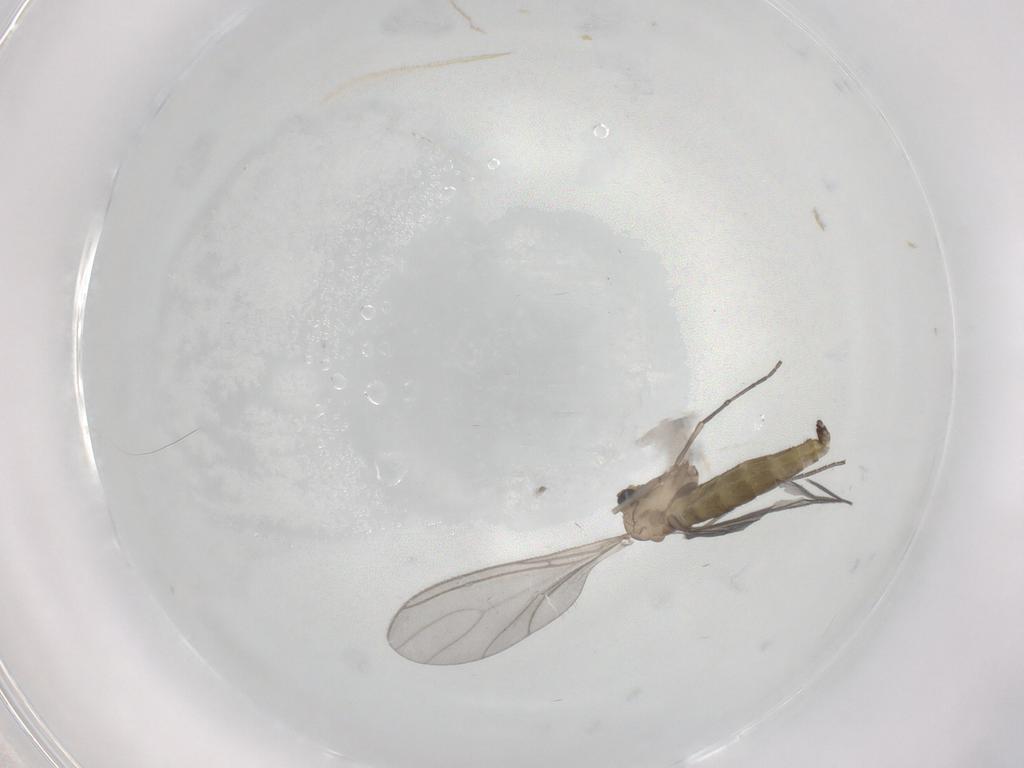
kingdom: Animalia
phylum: Arthropoda
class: Insecta
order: Diptera
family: Sciaridae
